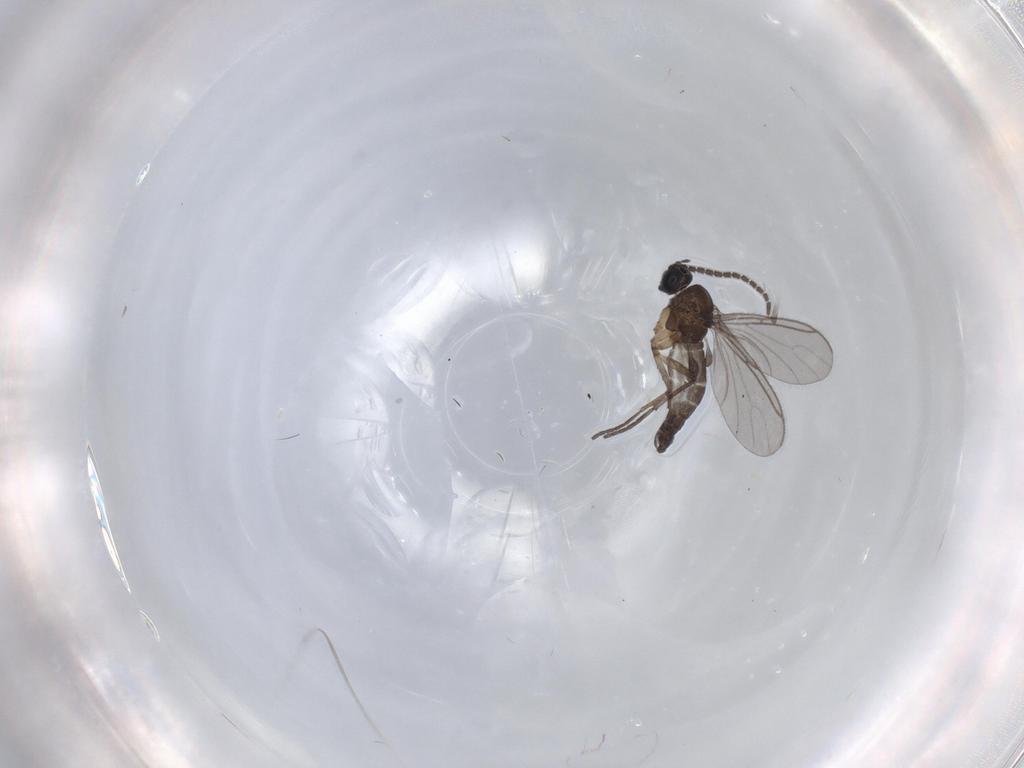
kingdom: Animalia
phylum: Arthropoda
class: Insecta
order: Diptera
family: Sciaridae
